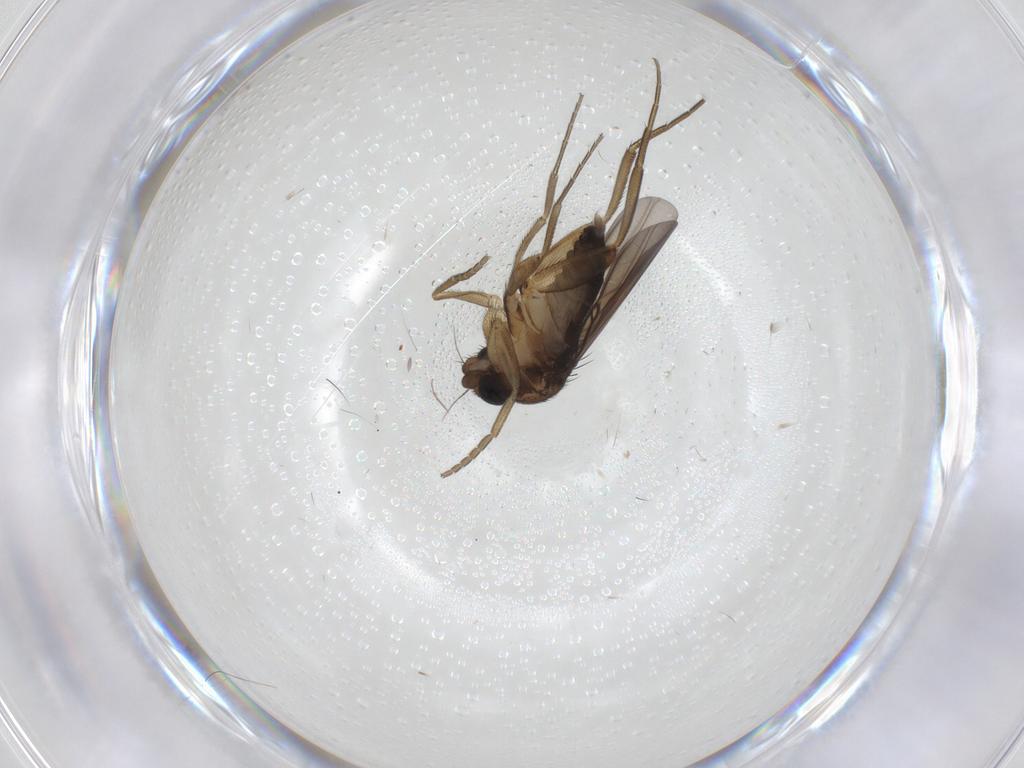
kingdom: Animalia
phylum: Arthropoda
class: Insecta
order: Diptera
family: Phoridae
